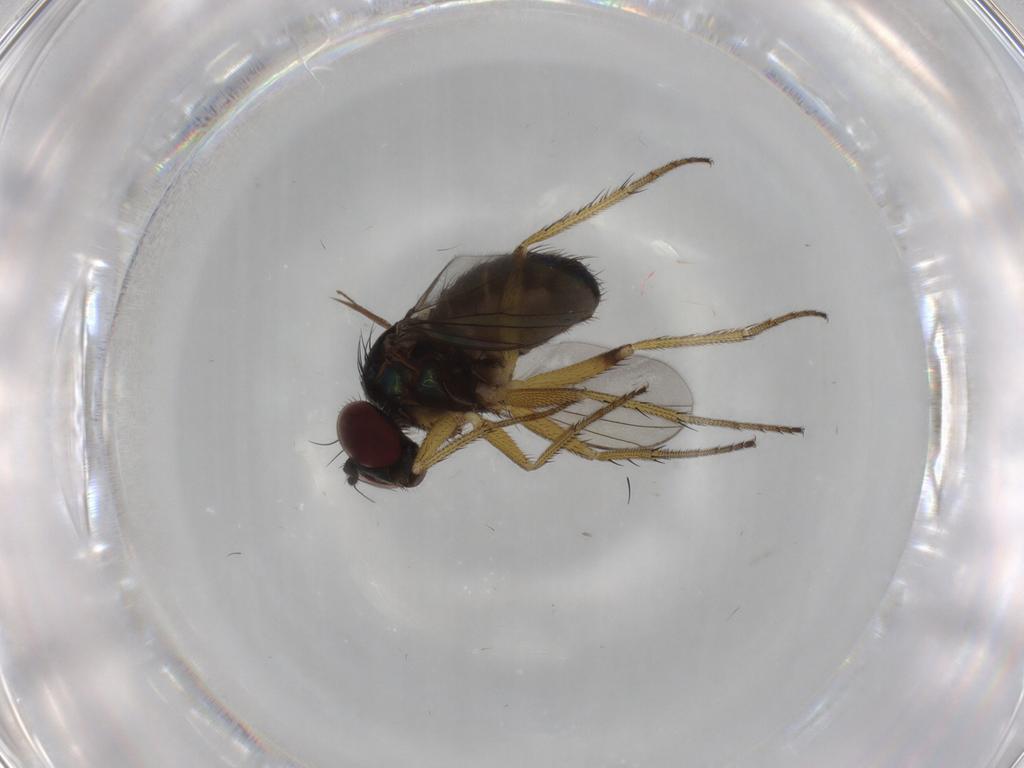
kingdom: Animalia
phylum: Arthropoda
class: Insecta
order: Diptera
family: Dolichopodidae
